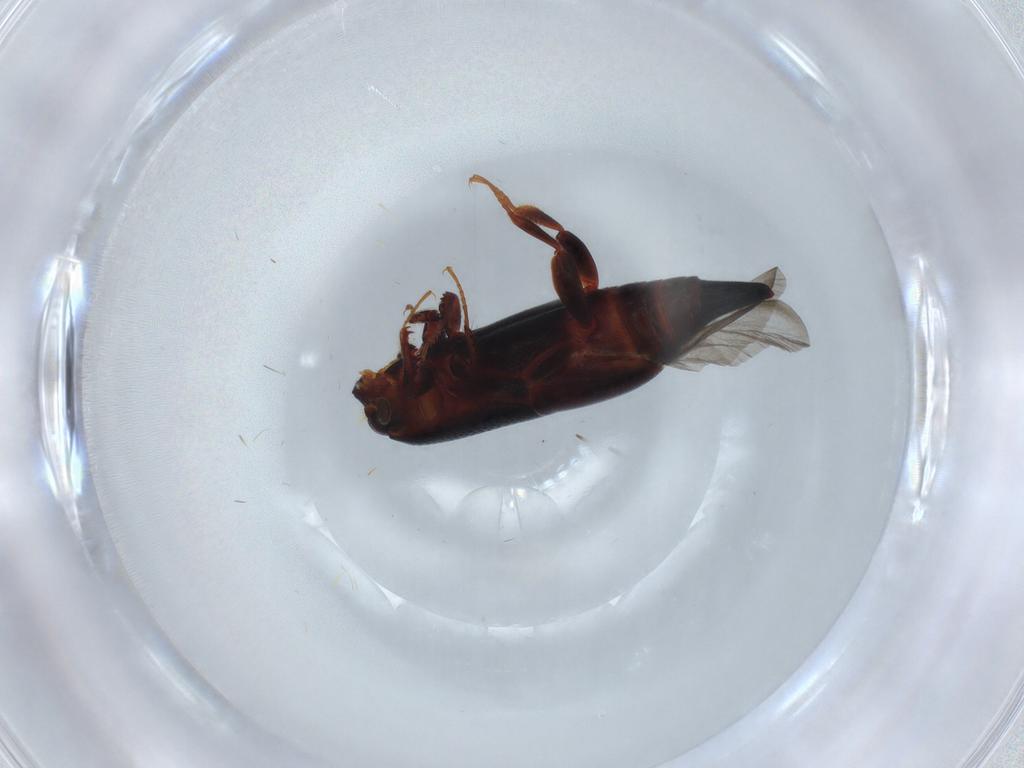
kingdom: Animalia
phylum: Arthropoda
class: Insecta
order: Coleoptera
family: Histeridae
